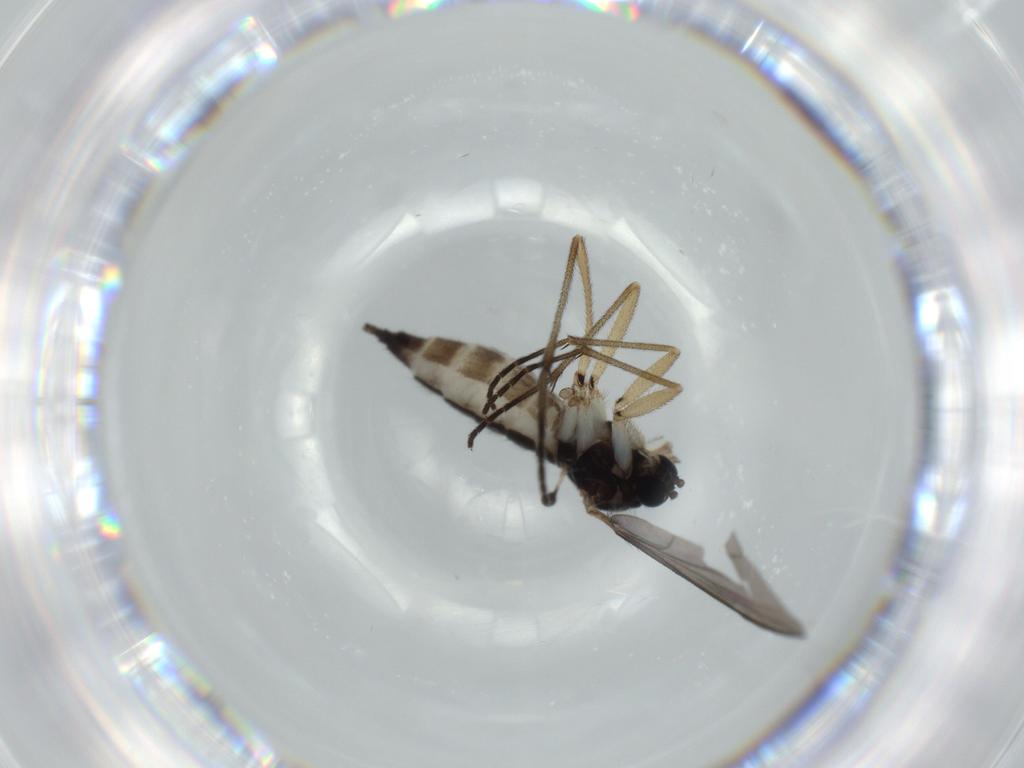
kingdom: Animalia
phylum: Arthropoda
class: Insecta
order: Diptera
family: Sciaridae
